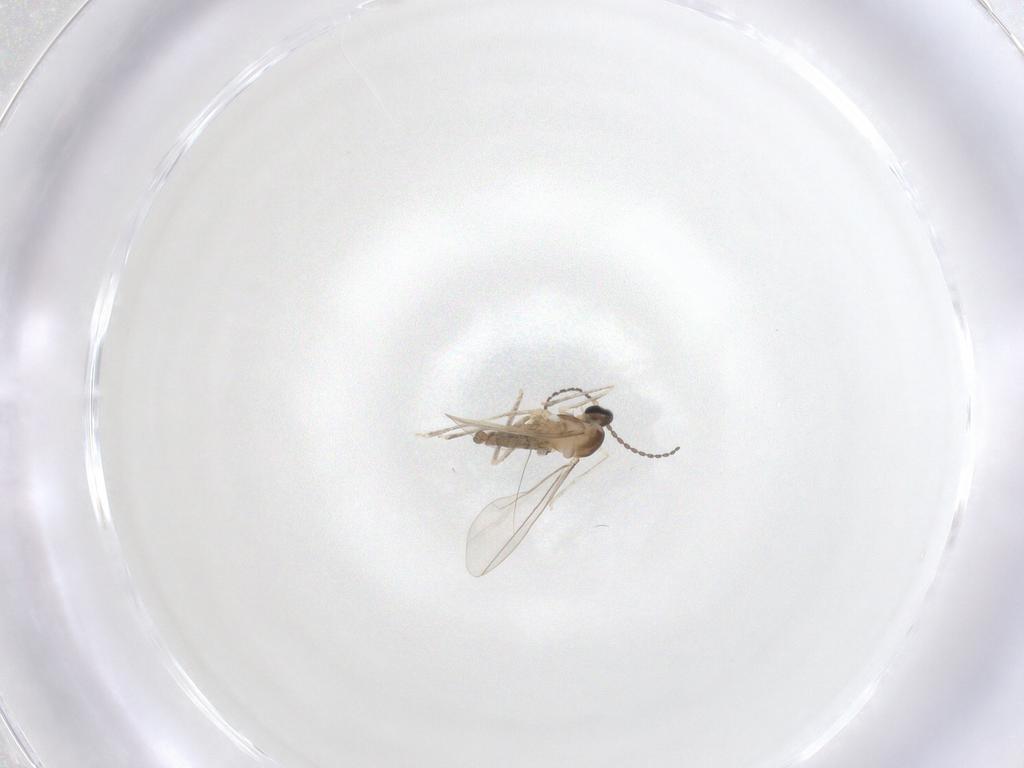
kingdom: Animalia
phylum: Arthropoda
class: Insecta
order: Diptera
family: Cecidomyiidae
